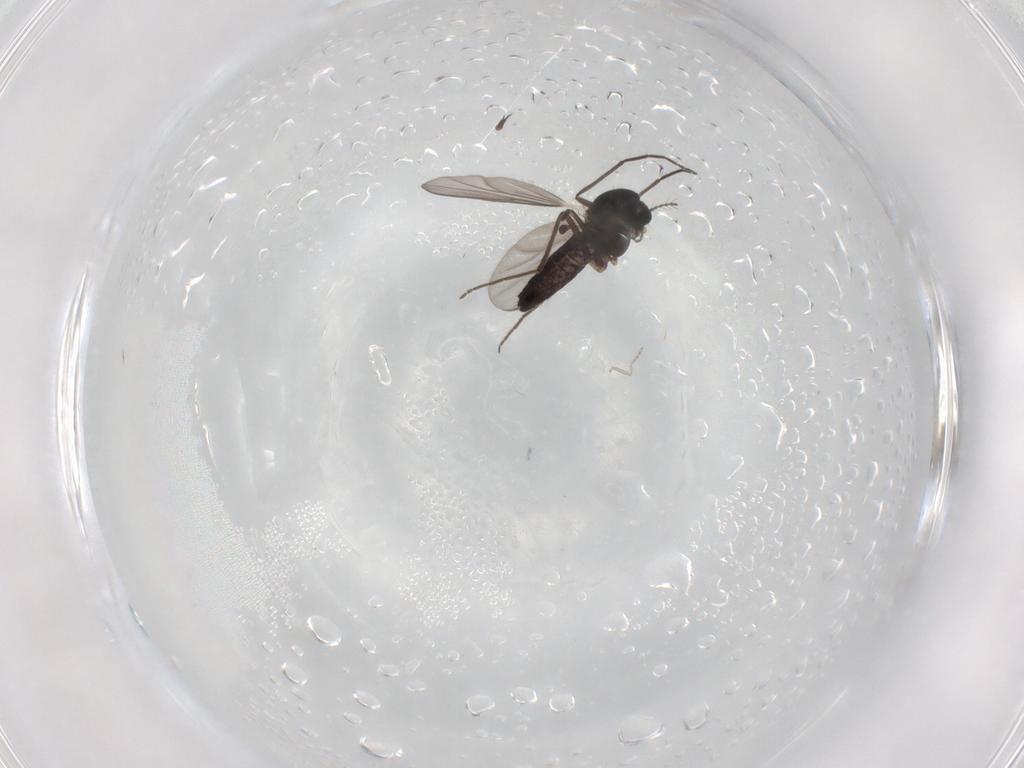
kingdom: Animalia
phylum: Arthropoda
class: Insecta
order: Diptera
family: Chironomidae
